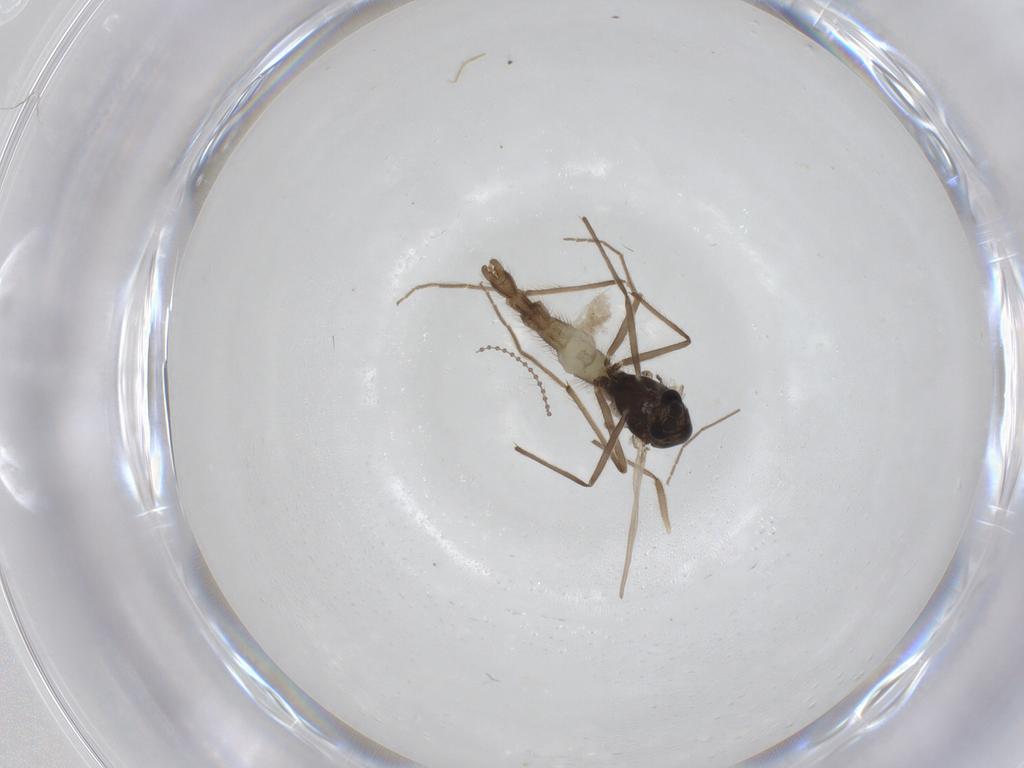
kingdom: Animalia
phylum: Arthropoda
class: Insecta
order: Diptera
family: Chironomidae
